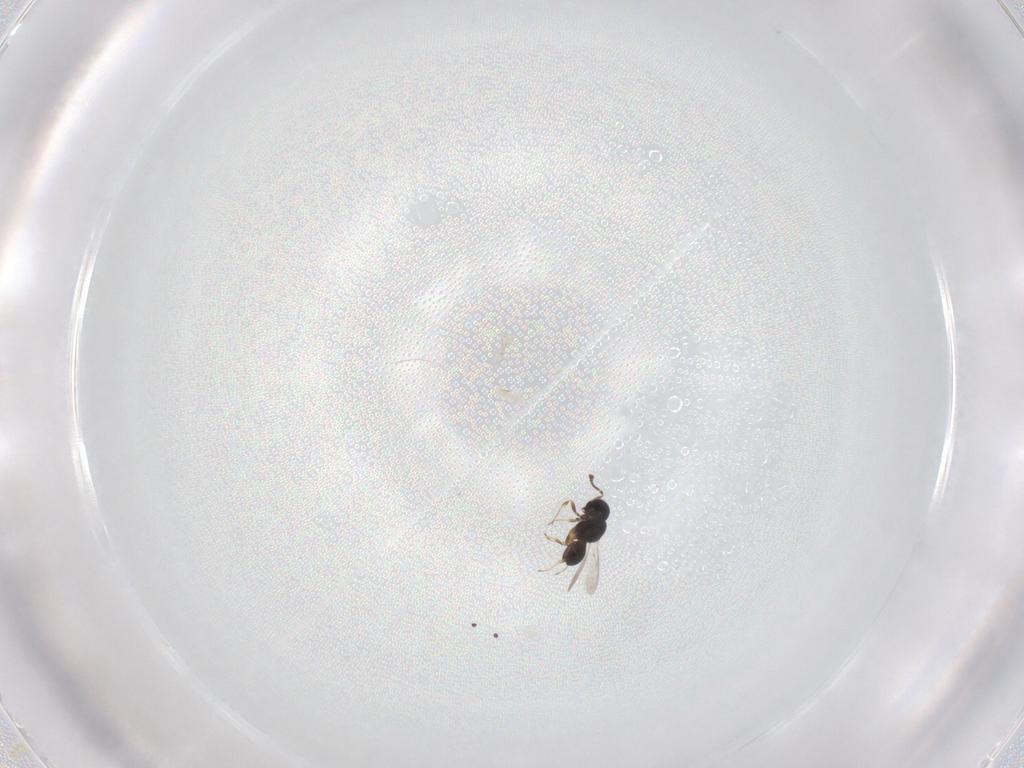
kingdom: Animalia
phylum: Arthropoda
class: Insecta
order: Hymenoptera
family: Scelionidae
